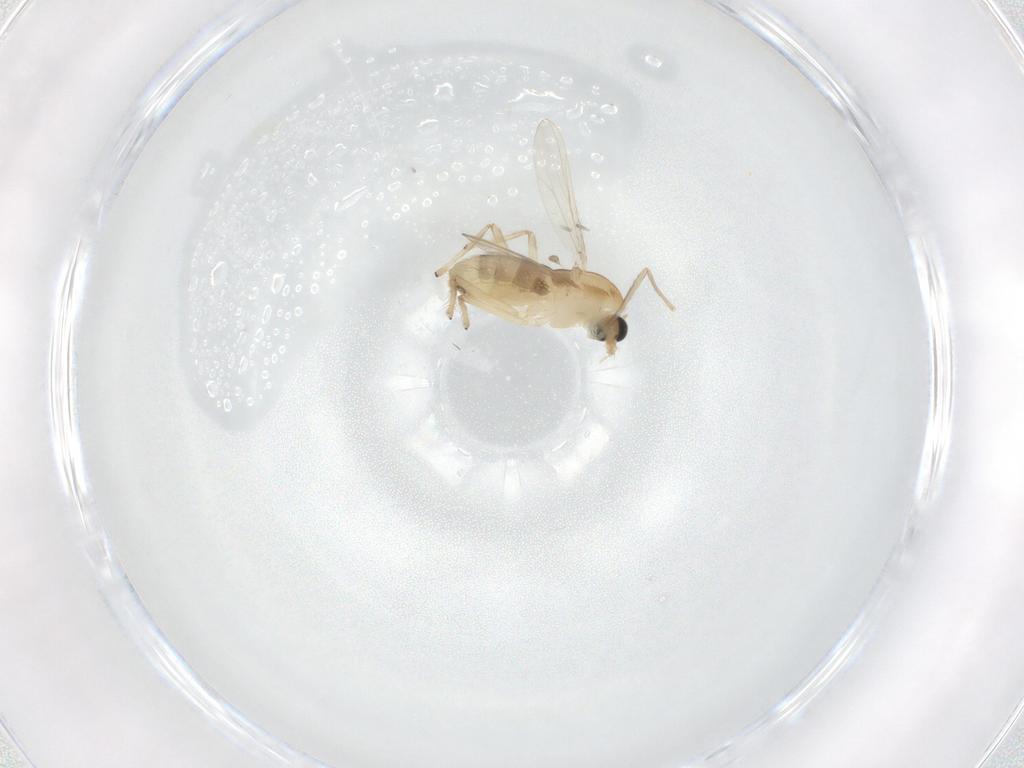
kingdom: Animalia
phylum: Arthropoda
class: Insecta
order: Diptera
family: Chironomidae
